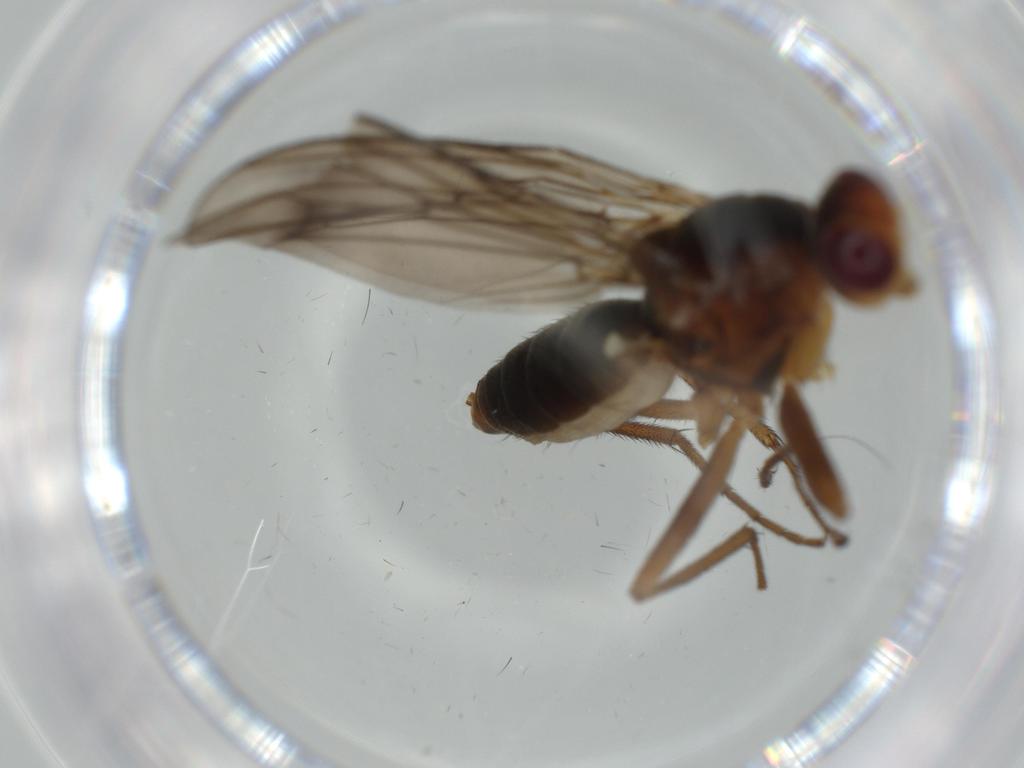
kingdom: Animalia
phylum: Arthropoda
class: Insecta
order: Diptera
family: Scathophagidae
